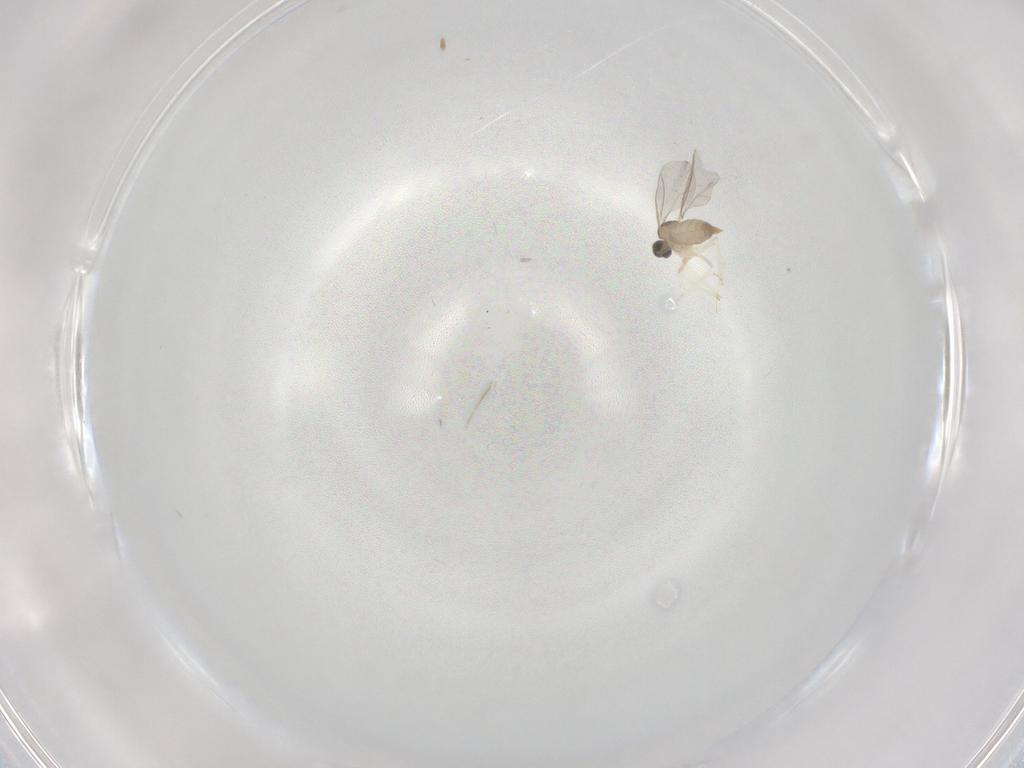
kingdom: Animalia
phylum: Arthropoda
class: Insecta
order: Diptera
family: Cecidomyiidae
